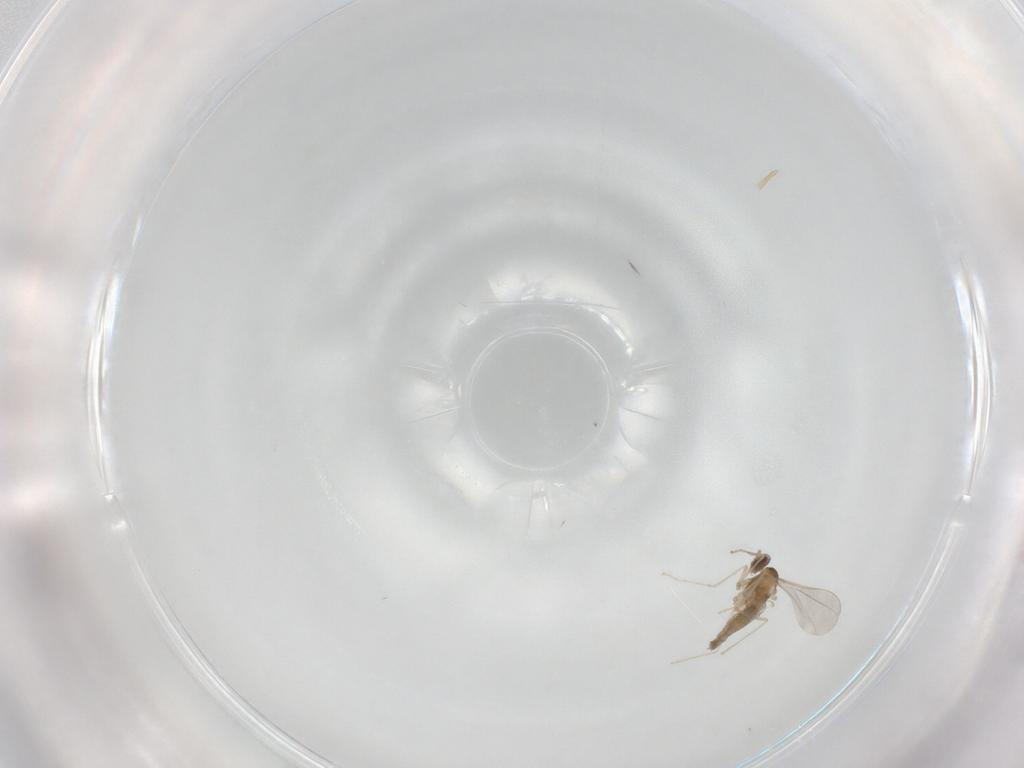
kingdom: Animalia
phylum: Arthropoda
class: Insecta
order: Diptera
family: Cecidomyiidae
